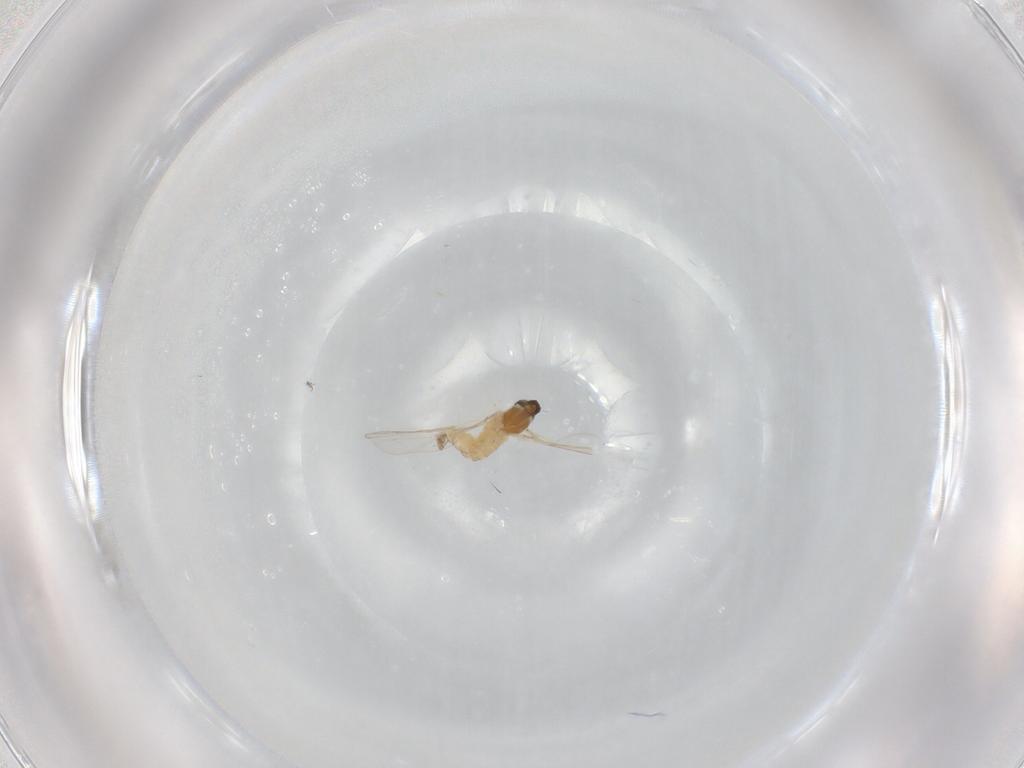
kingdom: Animalia
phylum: Arthropoda
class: Insecta
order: Diptera
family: Cecidomyiidae
